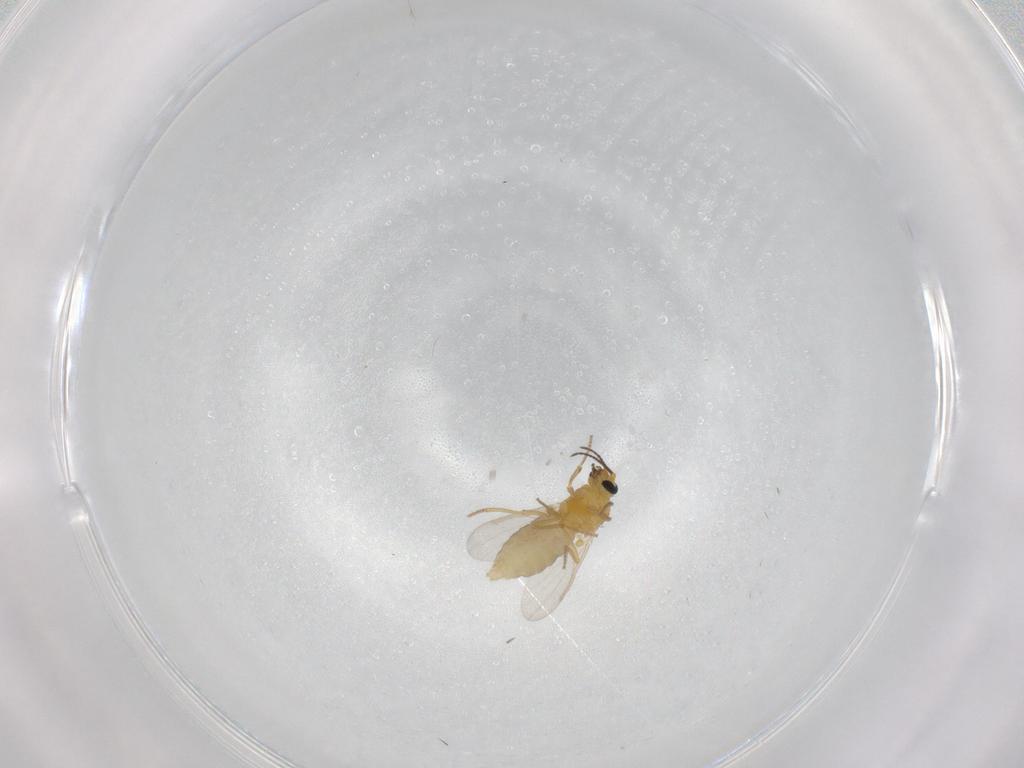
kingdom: Animalia
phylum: Arthropoda
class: Insecta
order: Diptera
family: Ceratopogonidae
